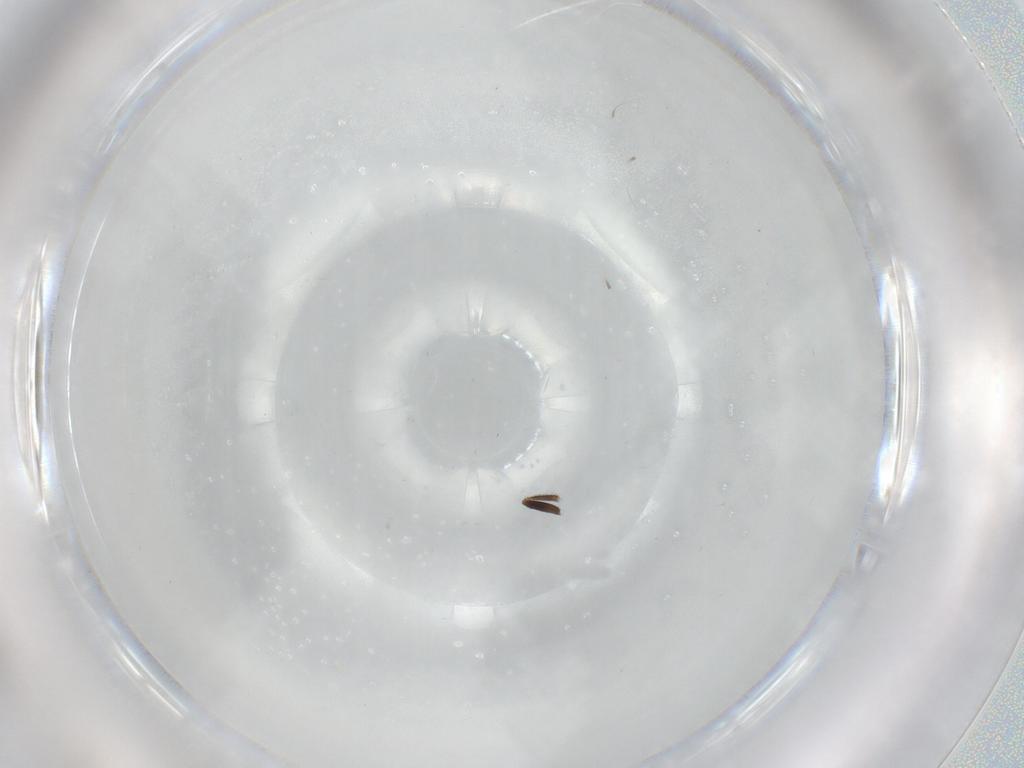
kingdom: Animalia
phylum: Arthropoda
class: Insecta
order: Diptera
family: Milichiidae
